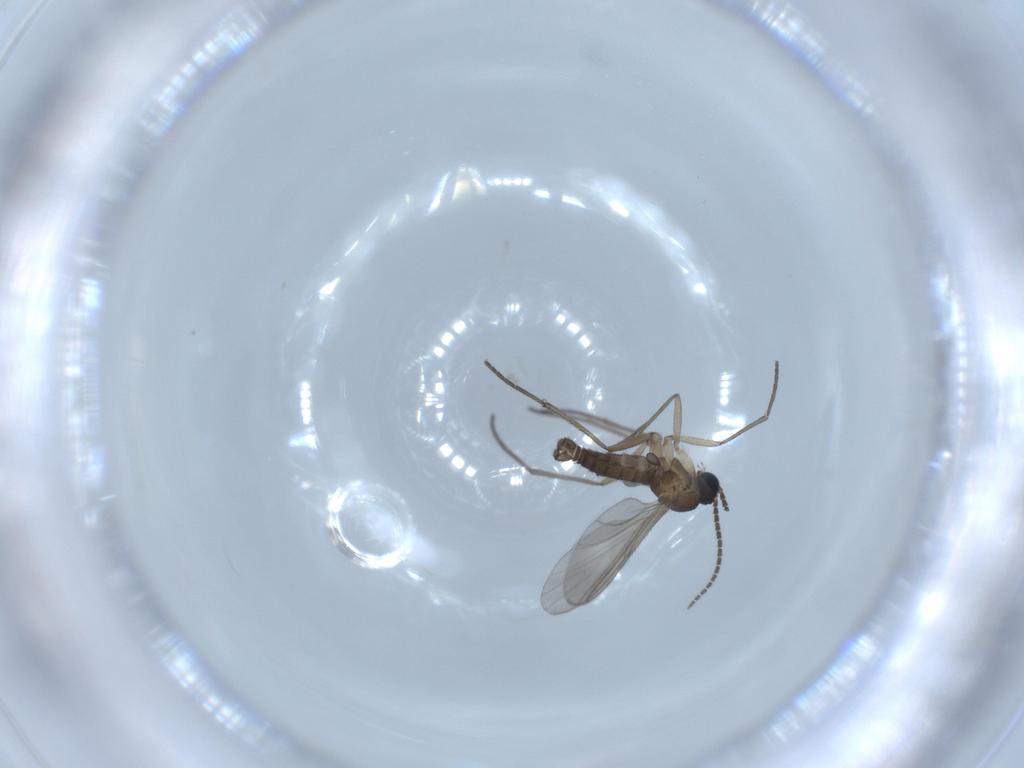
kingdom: Animalia
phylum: Arthropoda
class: Insecta
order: Diptera
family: Sciaridae
